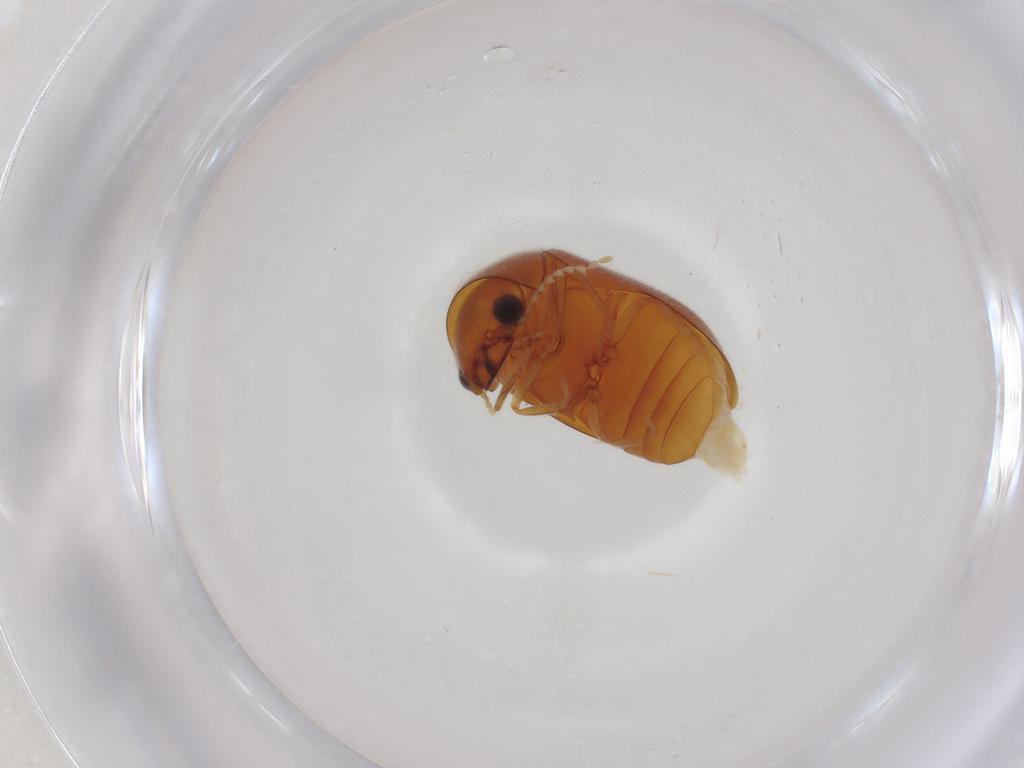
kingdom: Animalia
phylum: Arthropoda
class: Insecta
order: Coleoptera
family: Ptinidae
